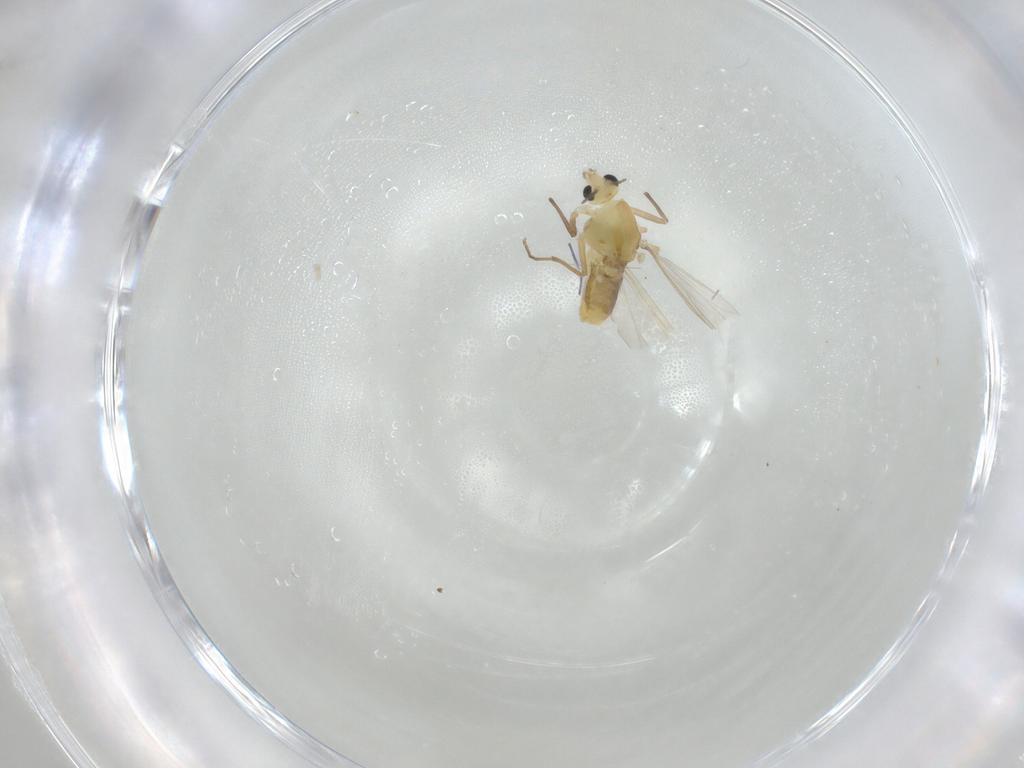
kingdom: Animalia
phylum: Arthropoda
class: Insecta
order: Diptera
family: Chironomidae
